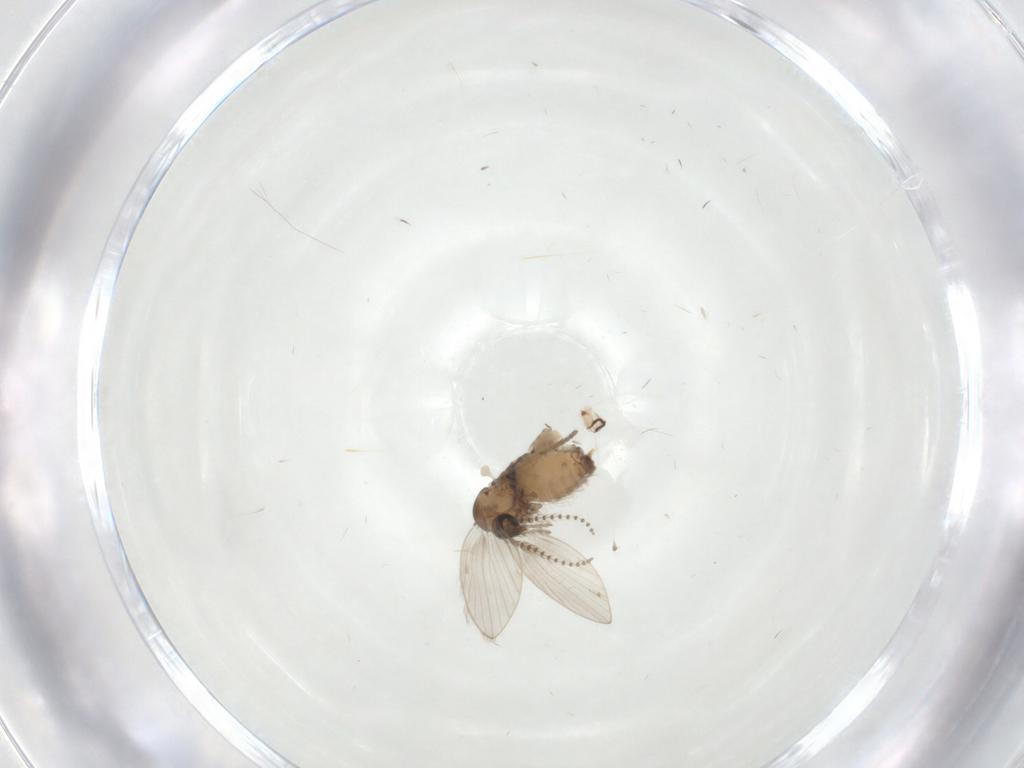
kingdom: Animalia
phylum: Arthropoda
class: Insecta
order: Diptera
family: Psychodidae
